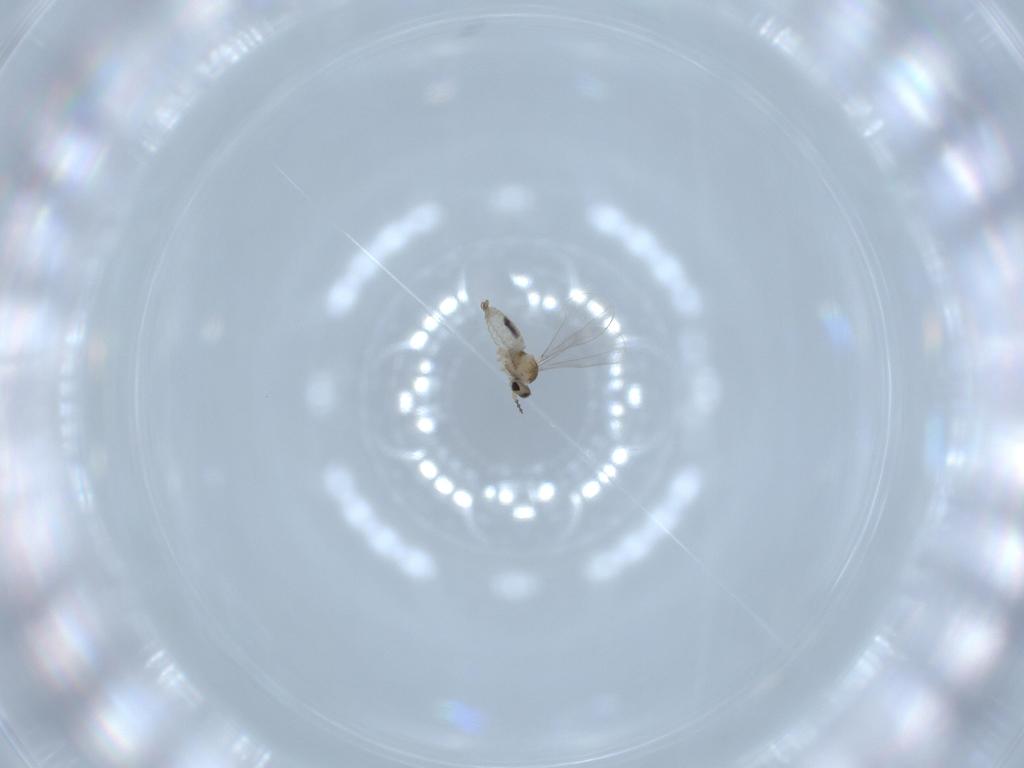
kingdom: Animalia
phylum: Arthropoda
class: Insecta
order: Diptera
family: Cecidomyiidae
